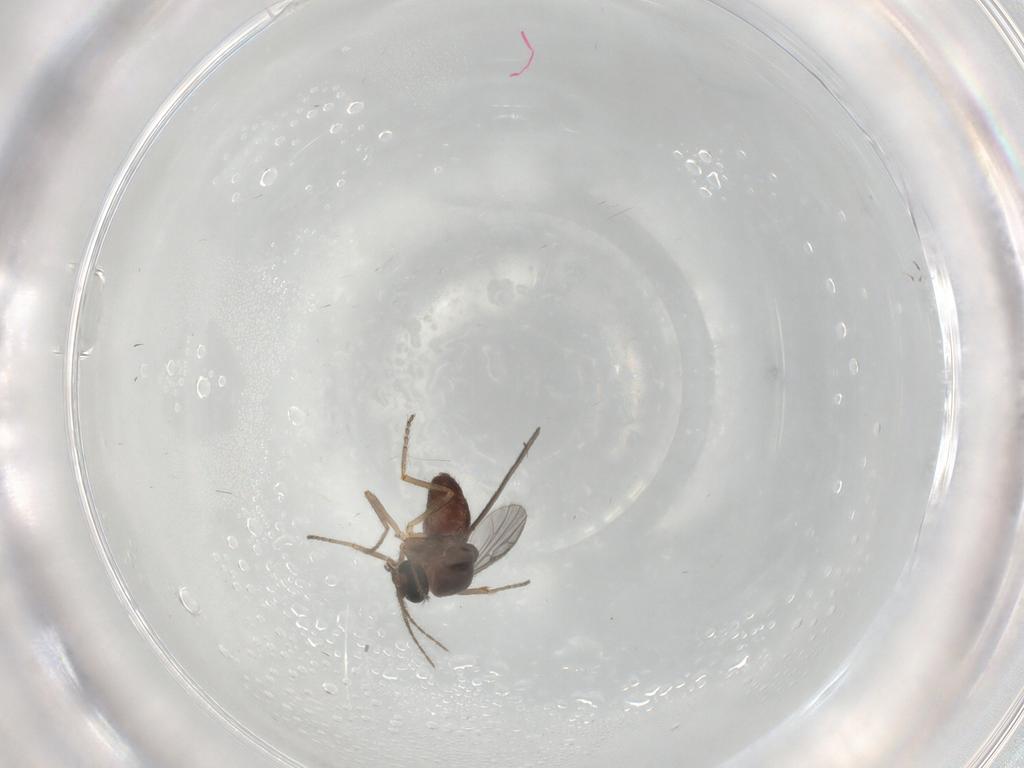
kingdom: Animalia
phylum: Arthropoda
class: Insecta
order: Diptera
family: Ceratopogonidae
